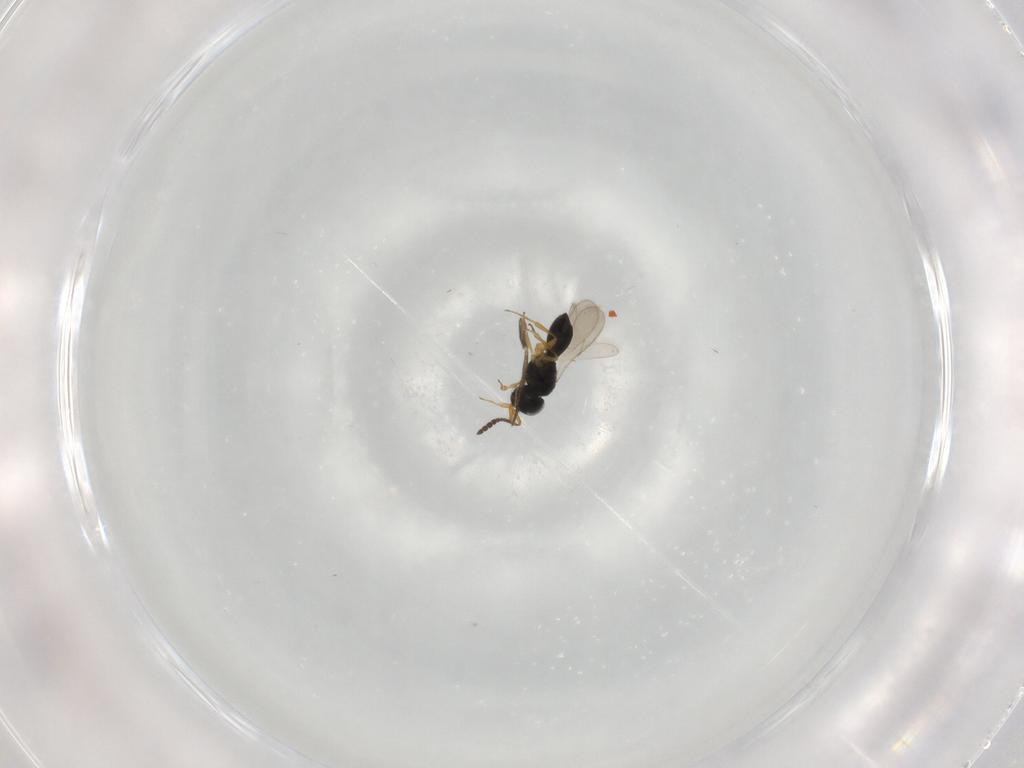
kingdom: Animalia
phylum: Arthropoda
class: Insecta
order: Hymenoptera
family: Scelionidae
